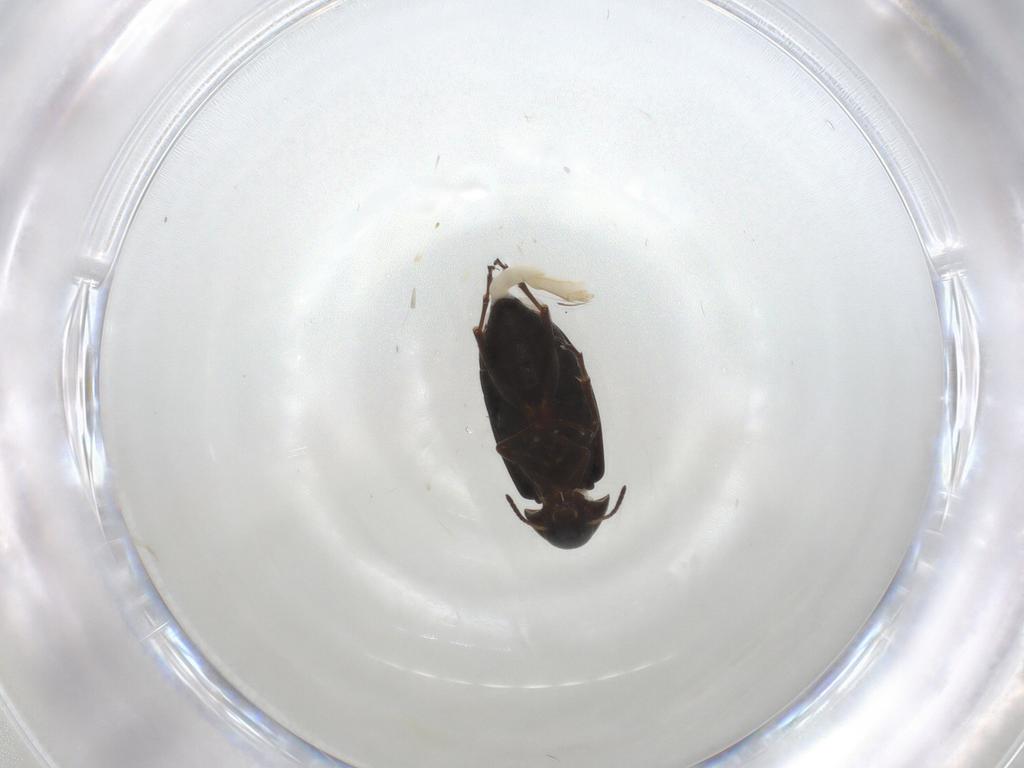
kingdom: Animalia
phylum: Arthropoda
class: Insecta
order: Coleoptera
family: Scraptiidae
